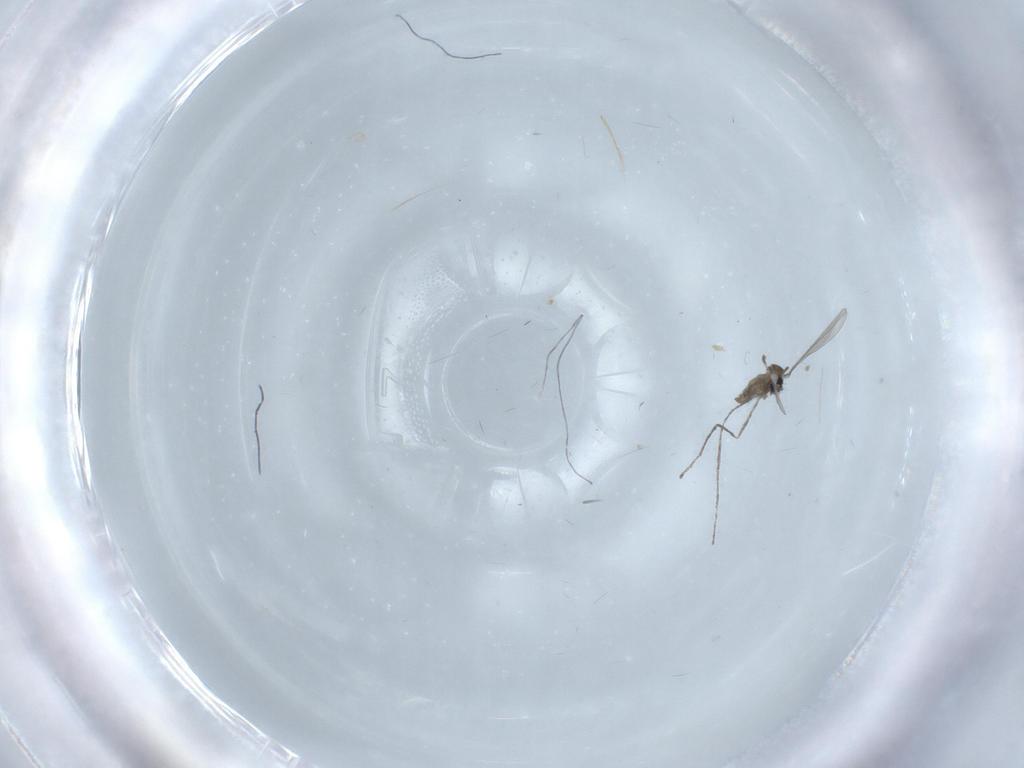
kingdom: Animalia
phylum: Arthropoda
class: Insecta
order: Diptera
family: Cecidomyiidae
